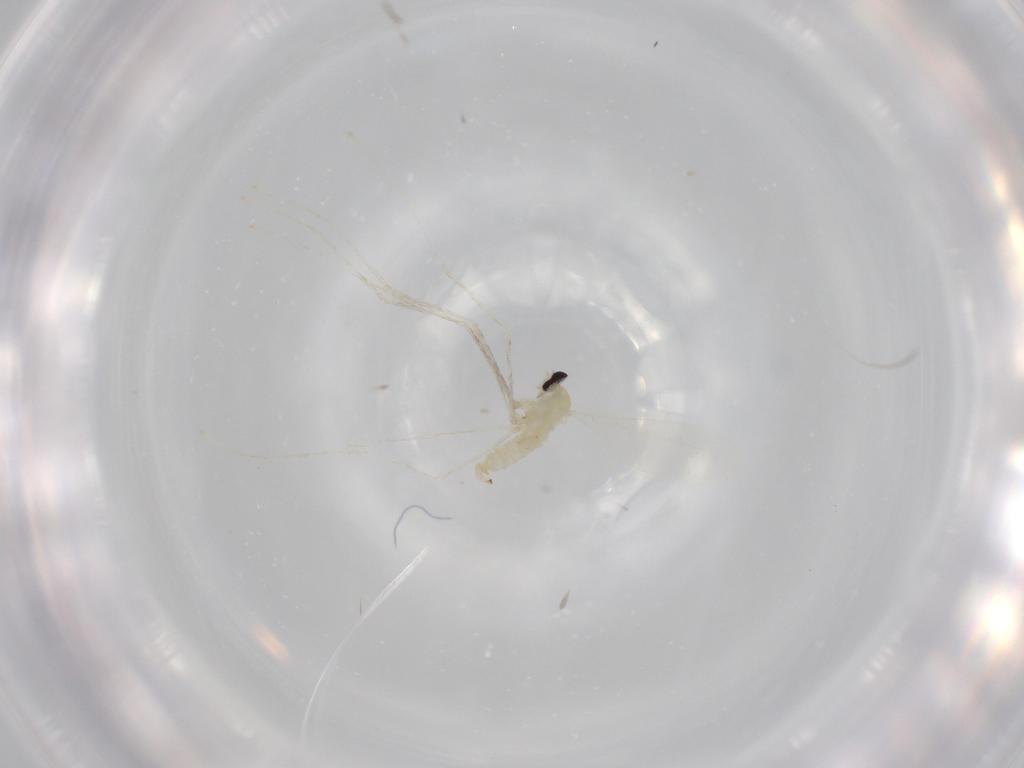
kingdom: Animalia
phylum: Arthropoda
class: Insecta
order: Diptera
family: Cecidomyiidae
